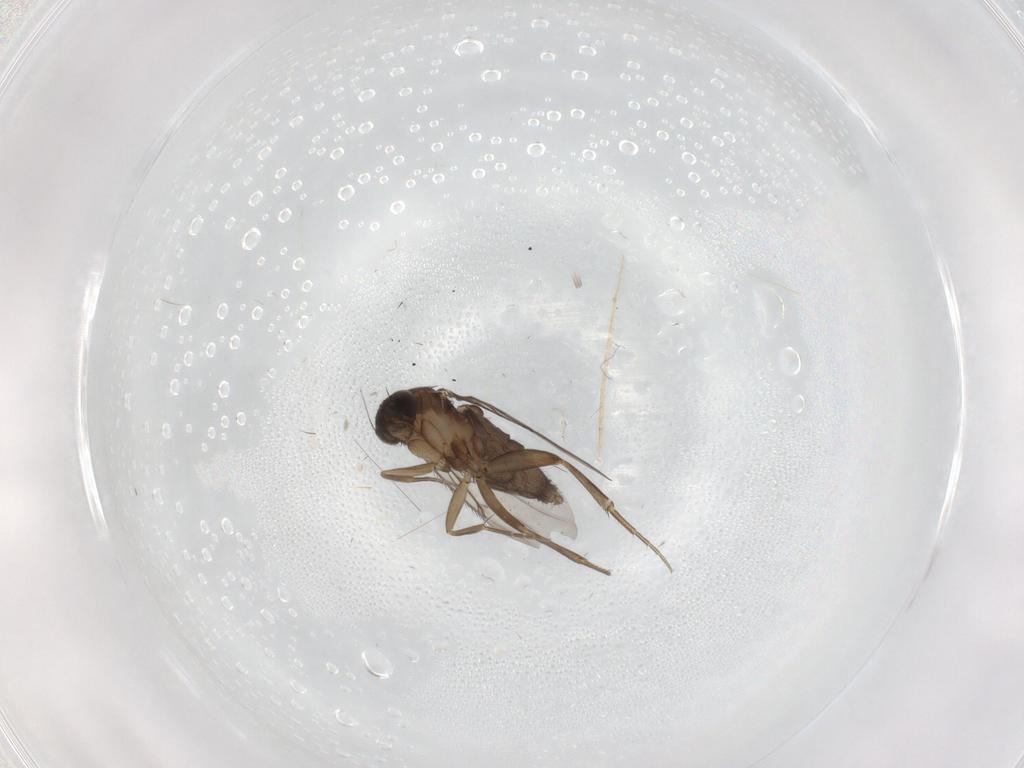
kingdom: Animalia
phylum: Arthropoda
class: Insecta
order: Diptera
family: Phoridae
